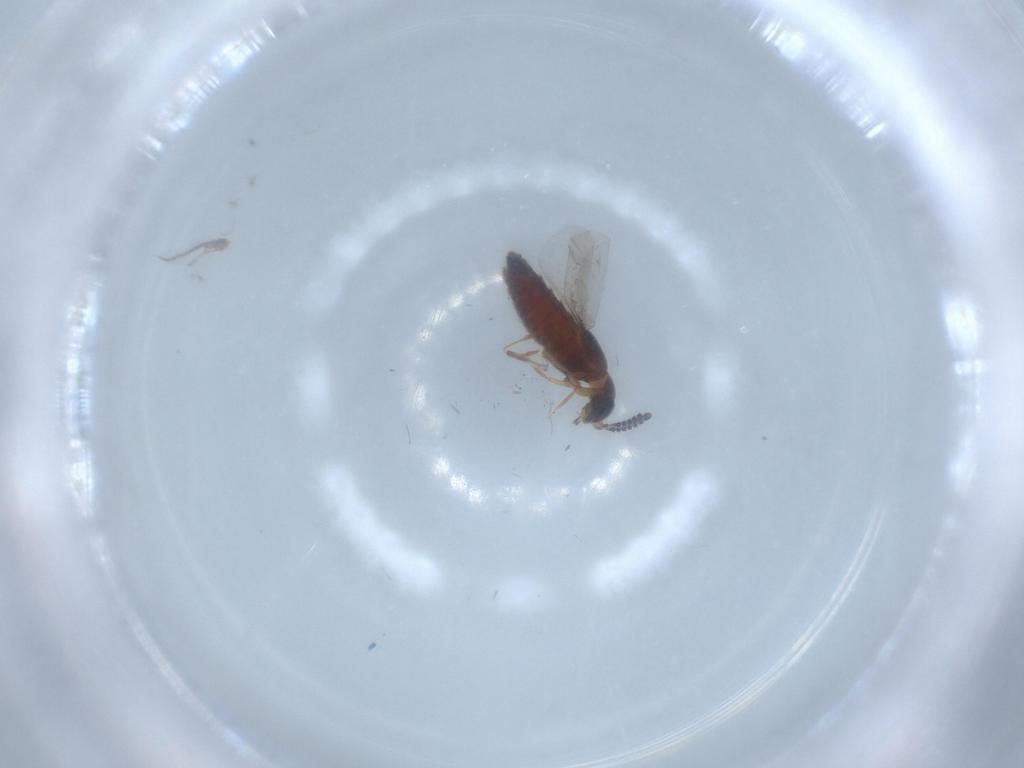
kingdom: Animalia
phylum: Arthropoda
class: Insecta
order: Coleoptera
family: Staphylinidae
